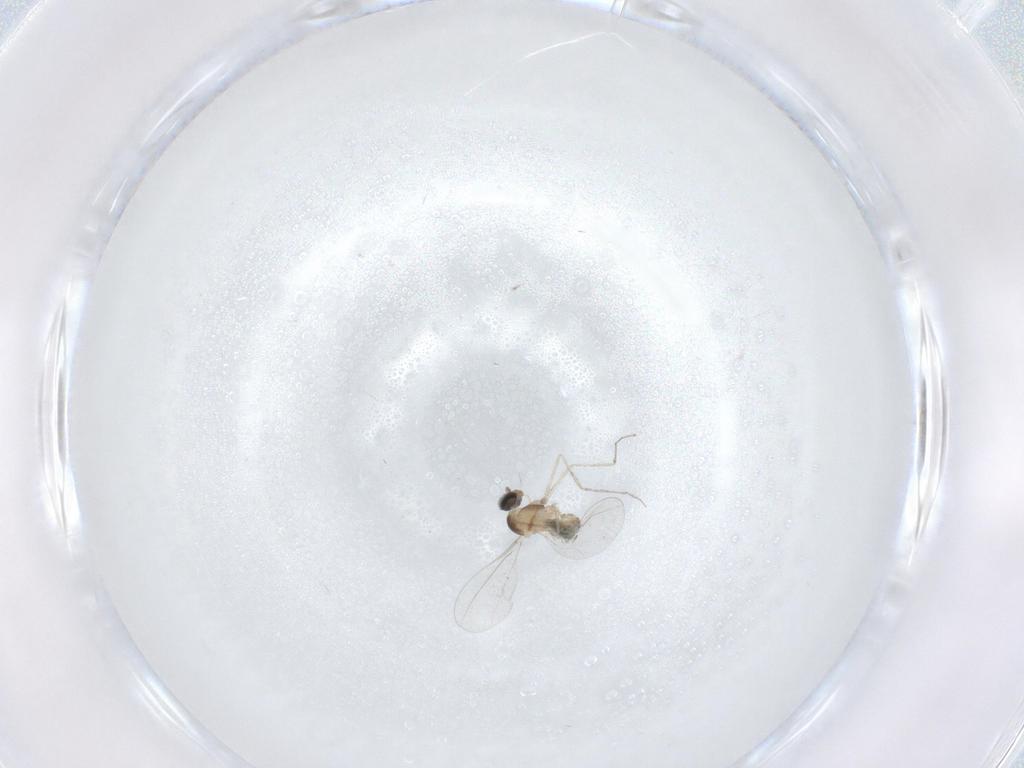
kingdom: Animalia
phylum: Arthropoda
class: Insecta
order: Diptera
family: Cecidomyiidae
